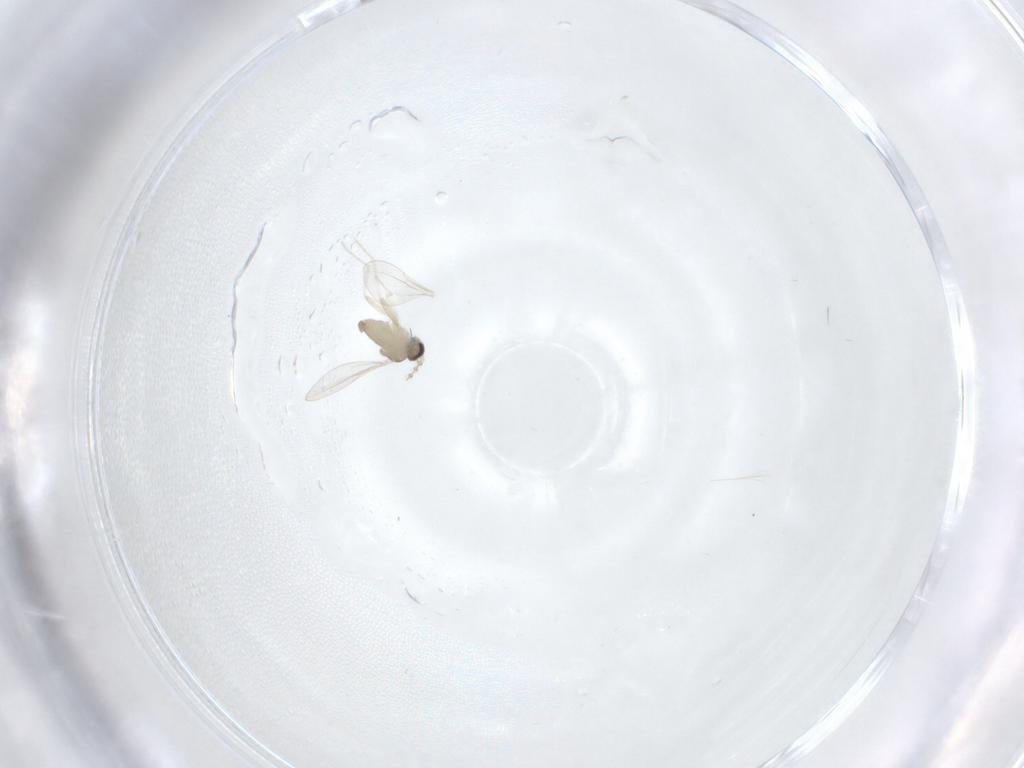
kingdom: Animalia
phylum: Arthropoda
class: Insecta
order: Diptera
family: Cecidomyiidae
